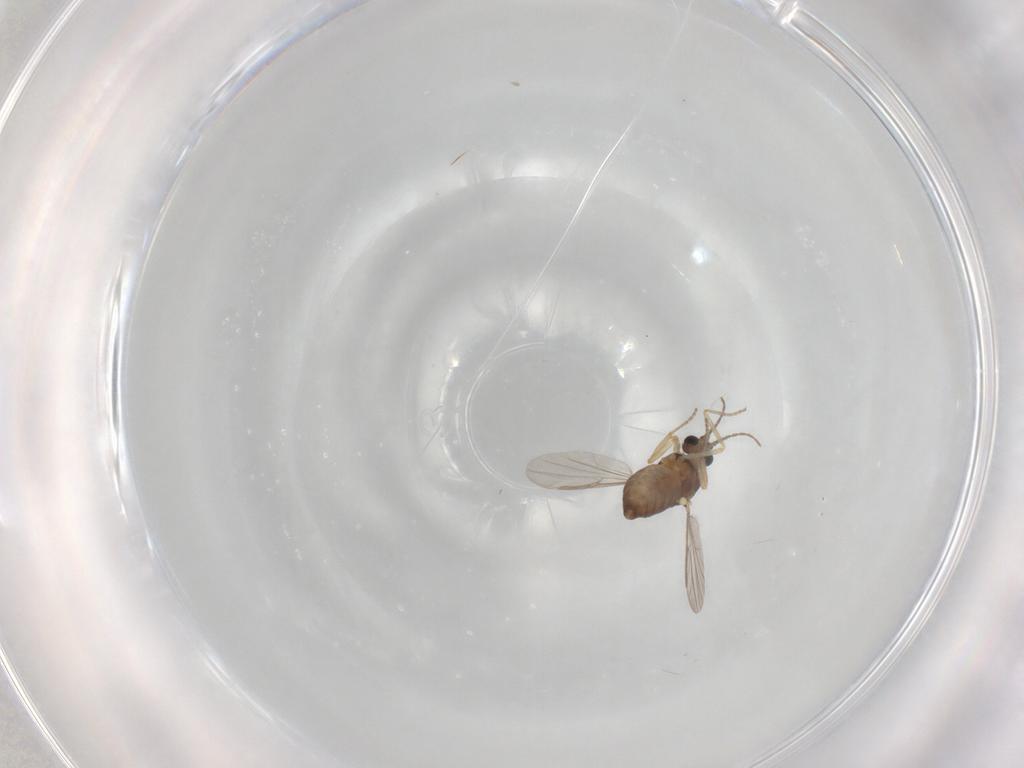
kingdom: Animalia
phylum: Arthropoda
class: Insecta
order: Diptera
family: Ceratopogonidae
